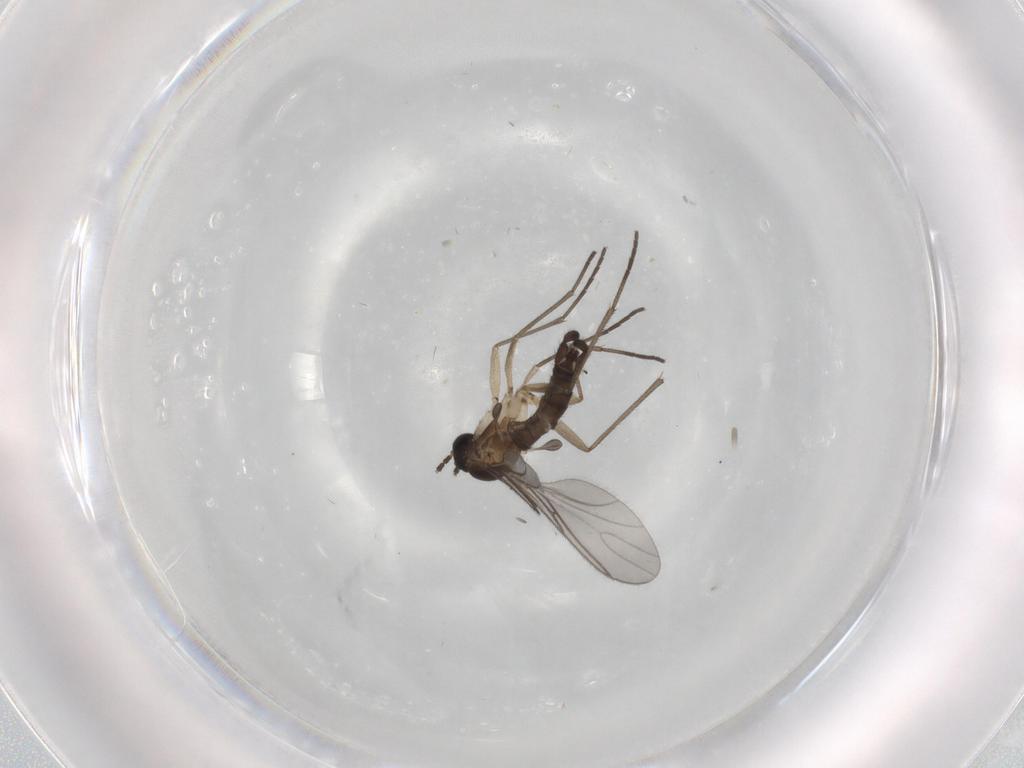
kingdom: Animalia
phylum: Arthropoda
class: Insecta
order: Diptera
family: Sciaridae
